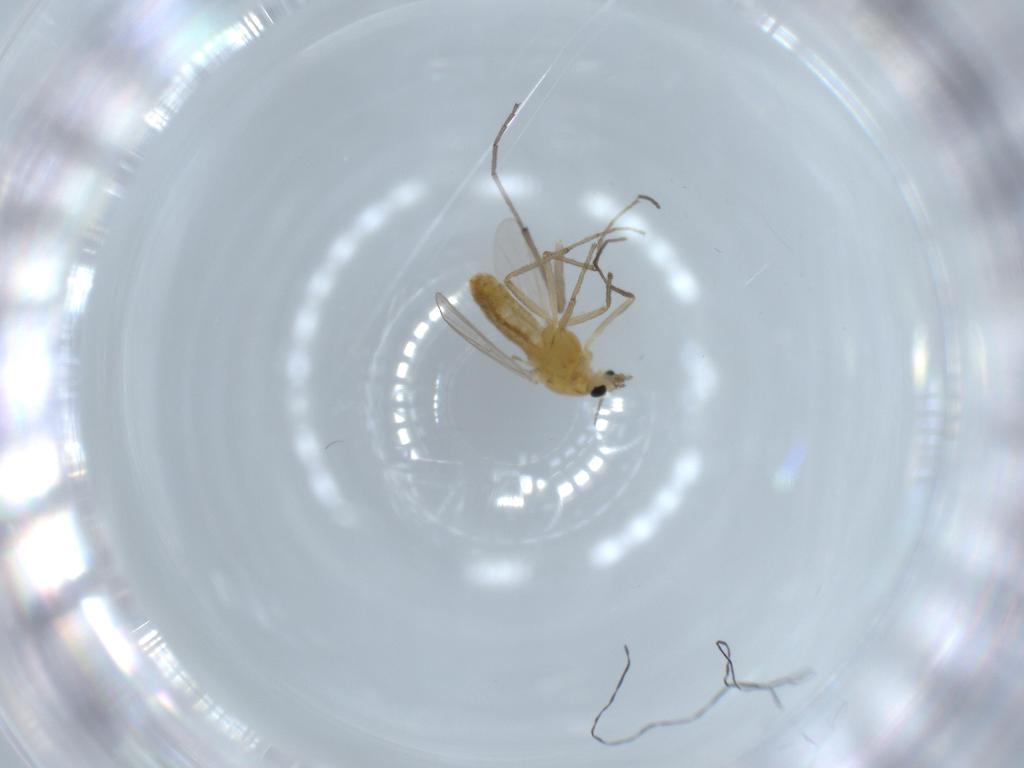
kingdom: Animalia
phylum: Arthropoda
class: Insecta
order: Diptera
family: Chironomidae
